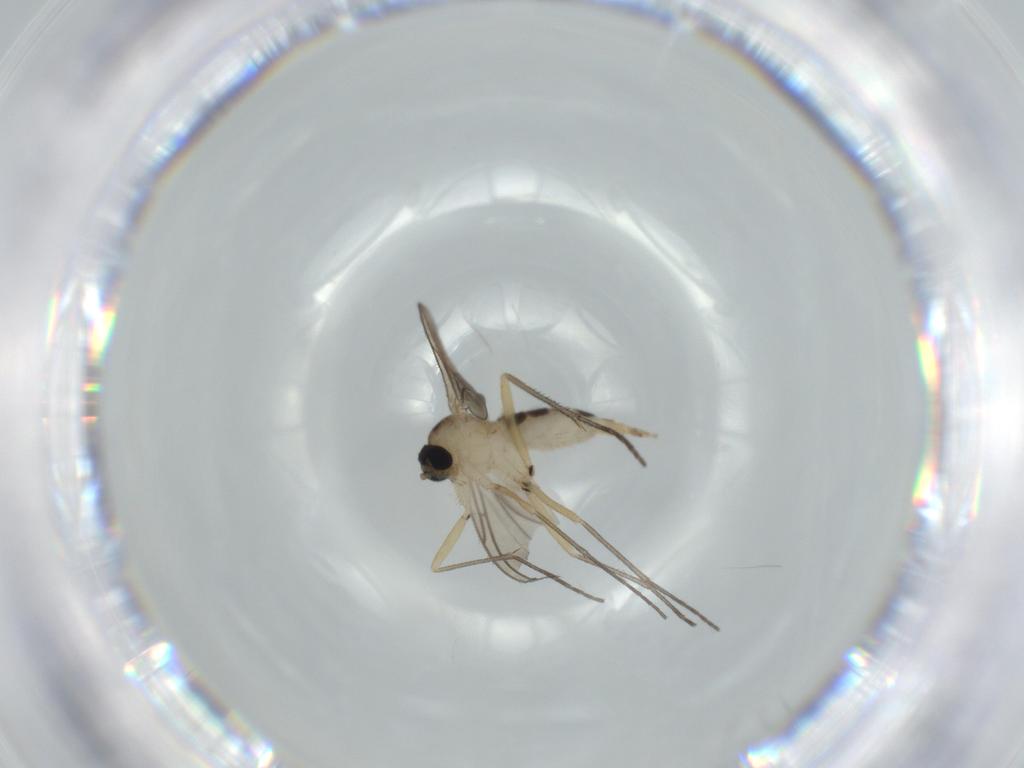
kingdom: Animalia
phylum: Arthropoda
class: Insecta
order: Diptera
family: Sciaridae
